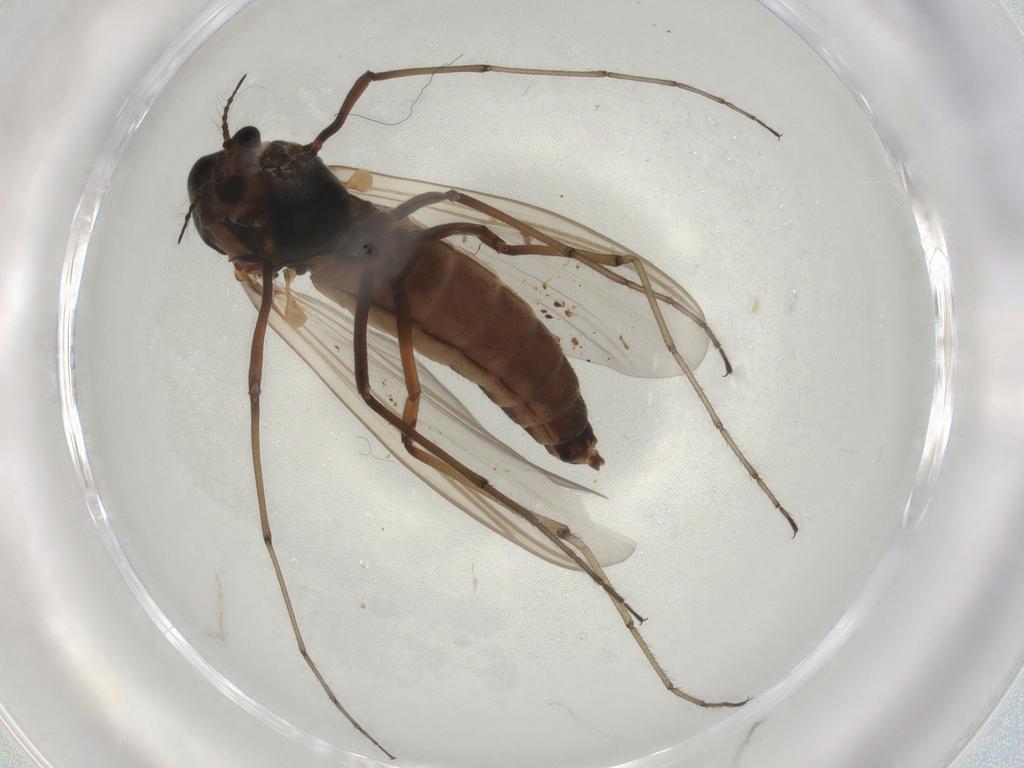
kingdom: Animalia
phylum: Arthropoda
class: Insecta
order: Diptera
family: Chironomidae
